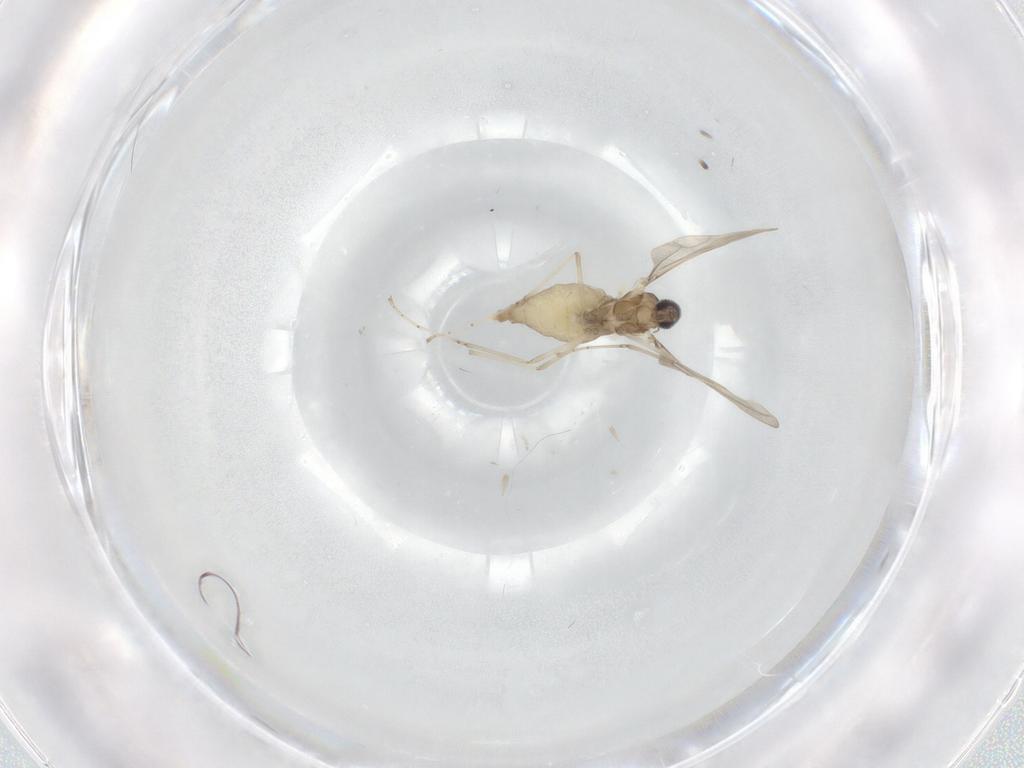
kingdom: Animalia
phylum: Arthropoda
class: Insecta
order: Diptera
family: Cecidomyiidae
